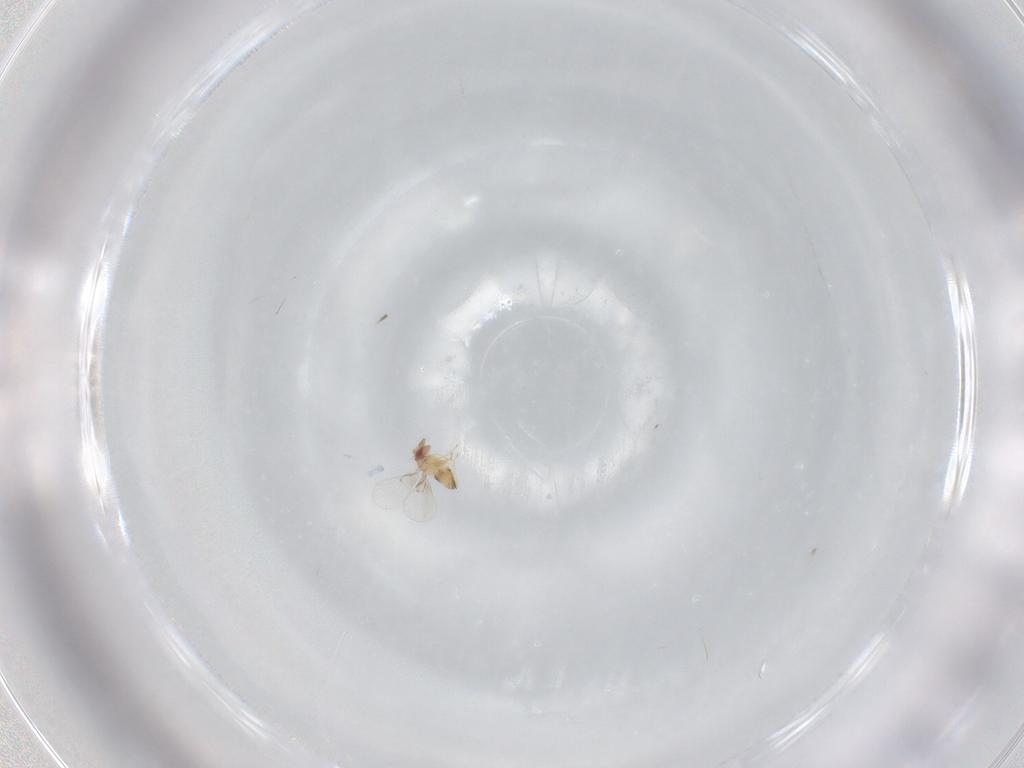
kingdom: Animalia
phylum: Arthropoda
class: Insecta
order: Hymenoptera
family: Trichogrammatidae
